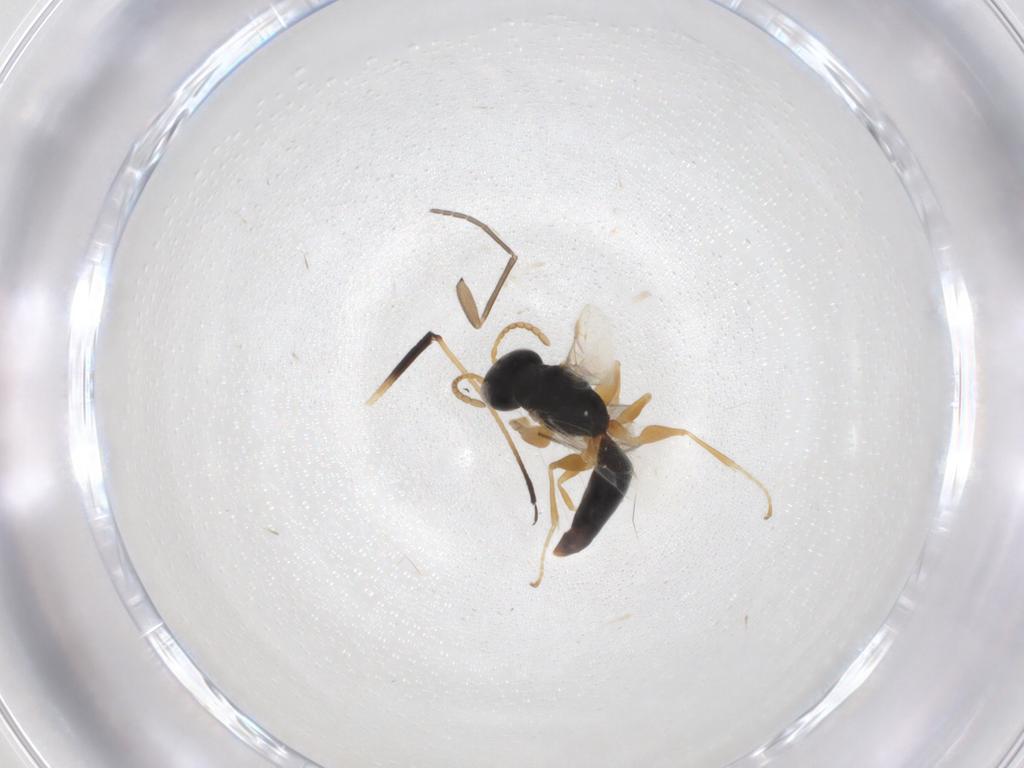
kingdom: Animalia
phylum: Arthropoda
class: Insecta
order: Hymenoptera
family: Dryinidae
